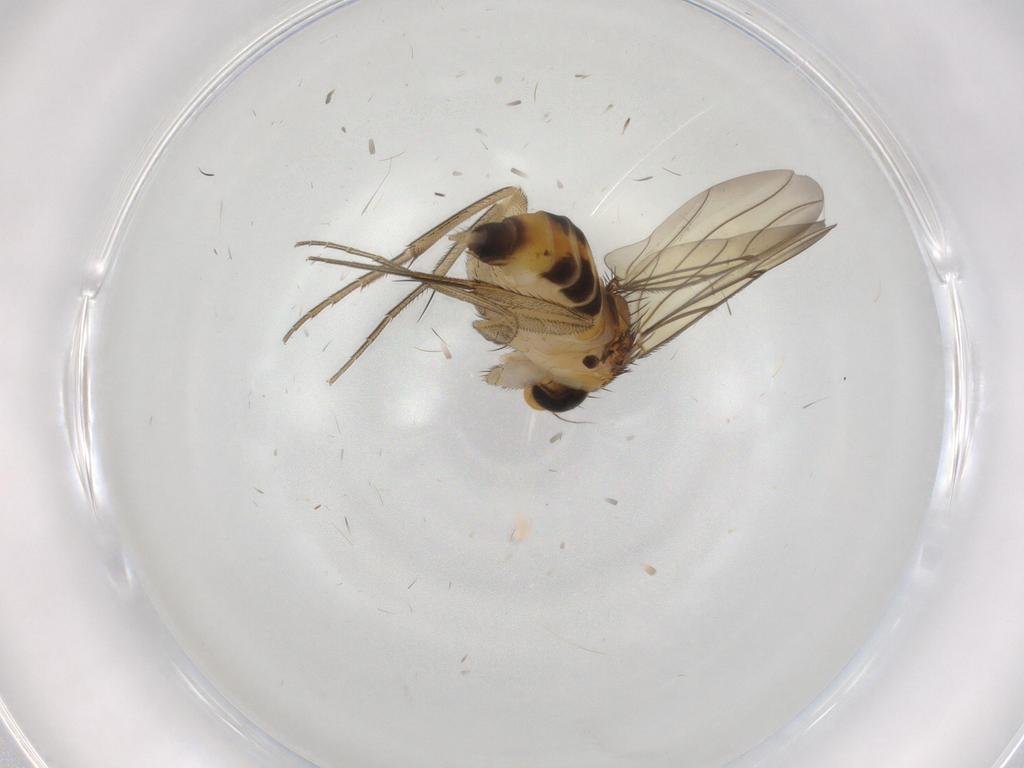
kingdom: Animalia
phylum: Arthropoda
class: Insecta
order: Diptera
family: Phoridae
